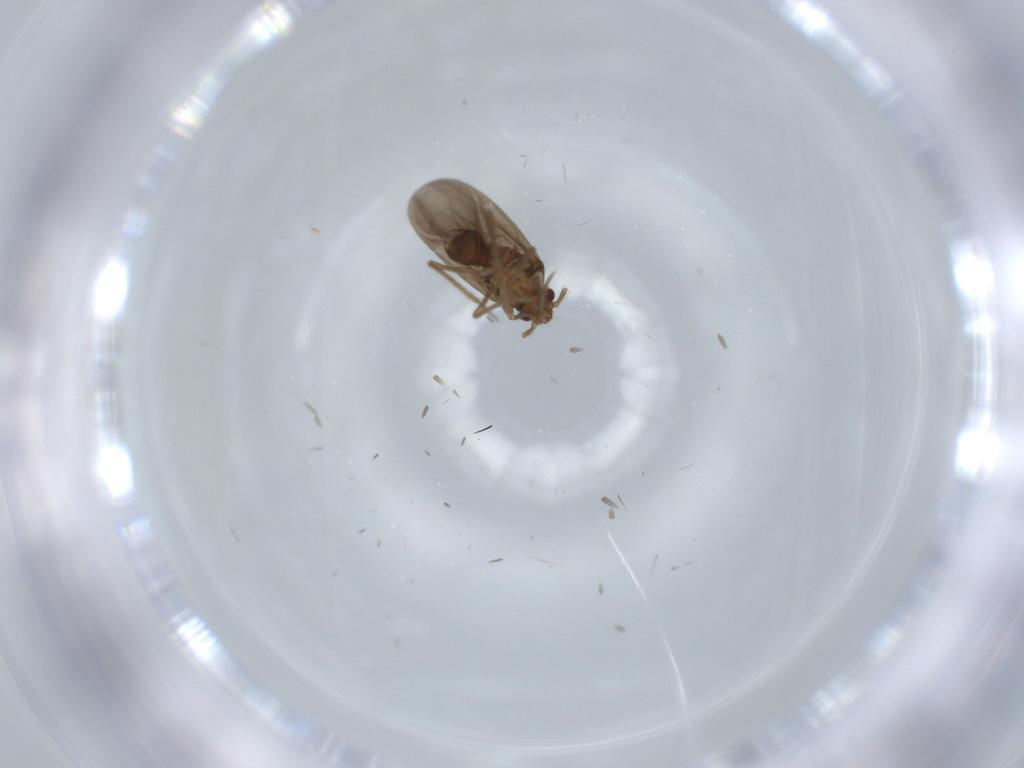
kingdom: Animalia
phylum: Arthropoda
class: Insecta
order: Hemiptera
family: Ceratocombidae
